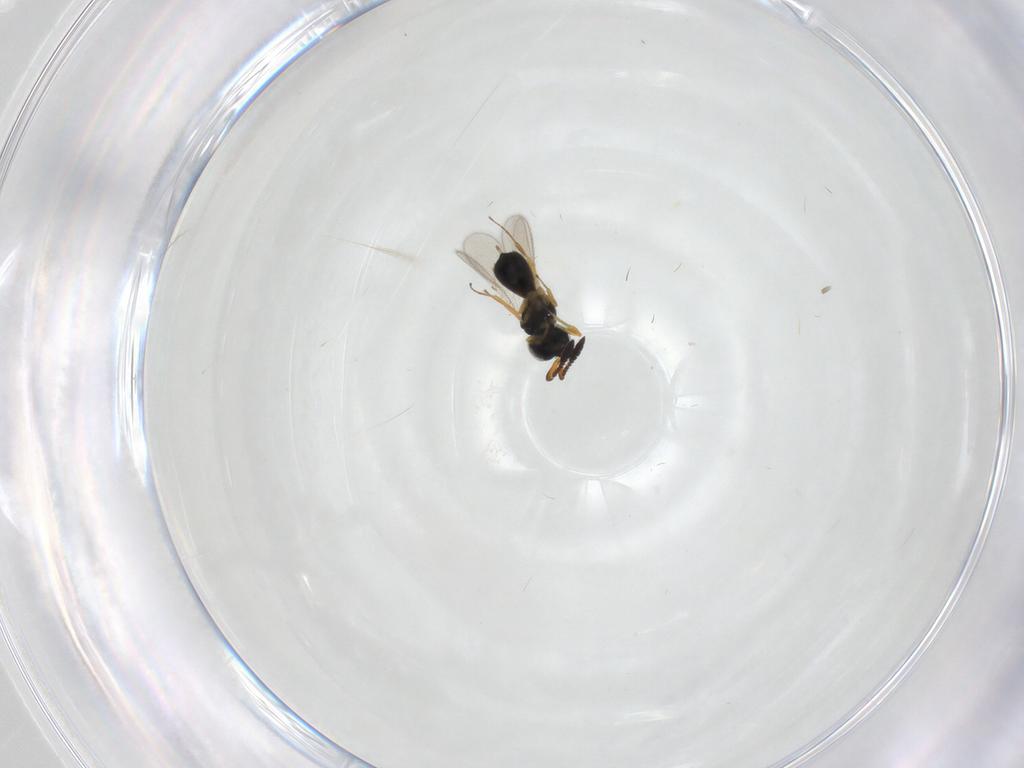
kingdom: Animalia
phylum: Arthropoda
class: Insecta
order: Hymenoptera
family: Scelionidae
